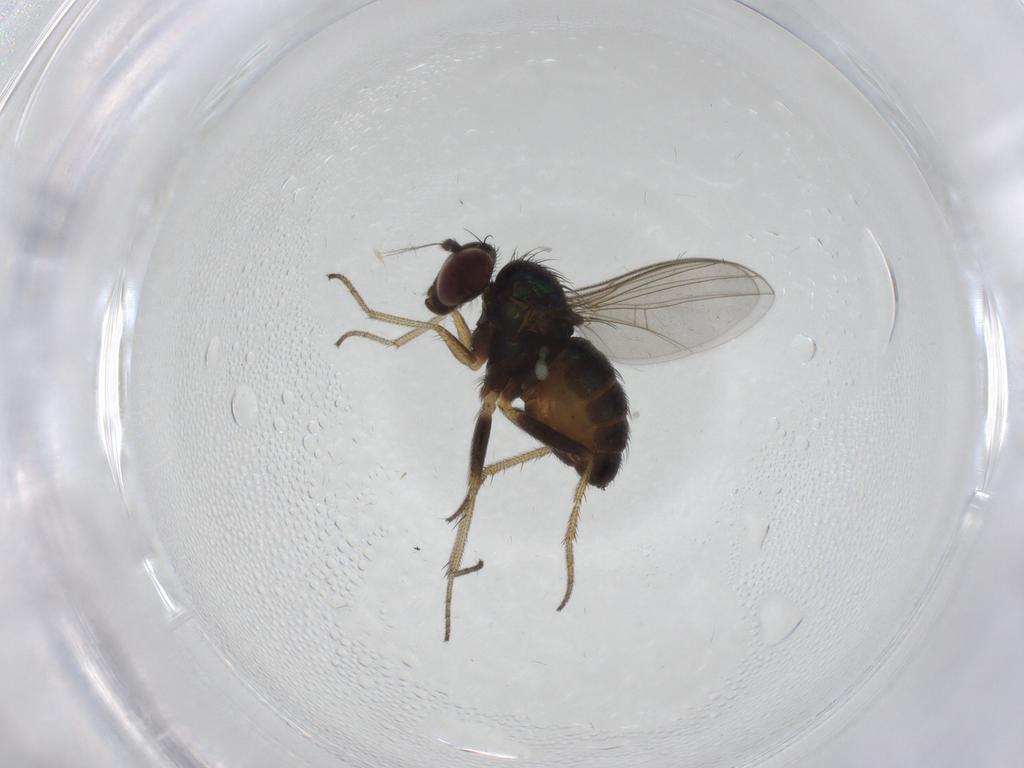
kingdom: Animalia
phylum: Arthropoda
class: Insecta
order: Diptera
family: Dolichopodidae
